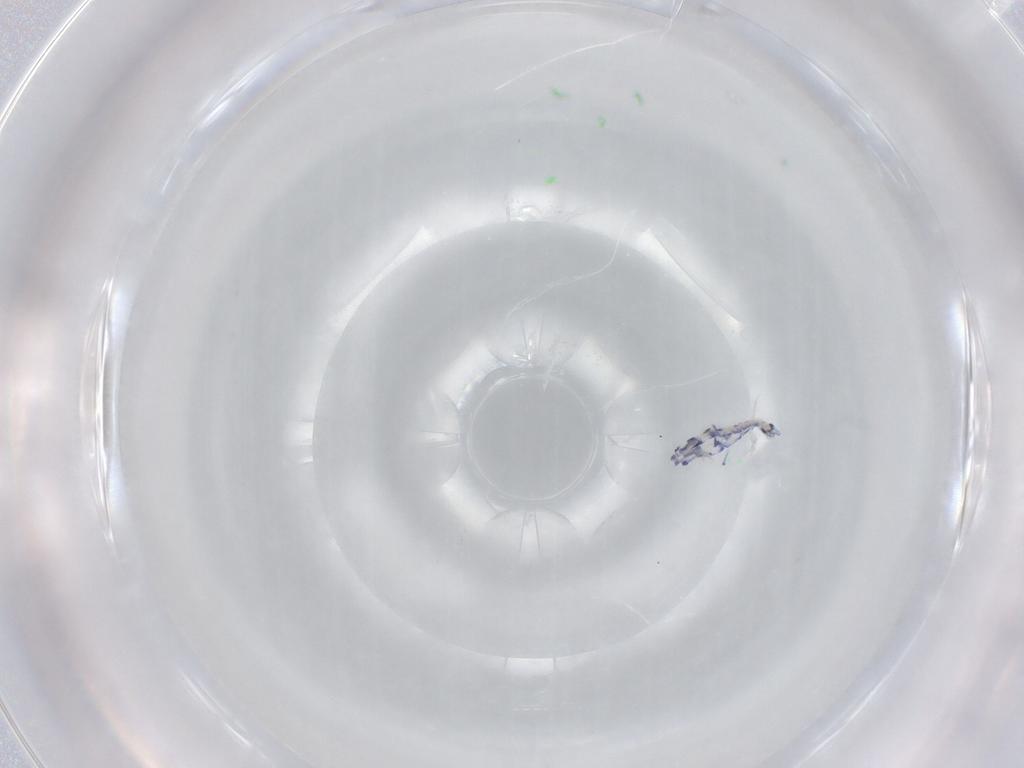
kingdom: Animalia
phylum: Arthropoda
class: Collembola
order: Entomobryomorpha
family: Entomobryidae
